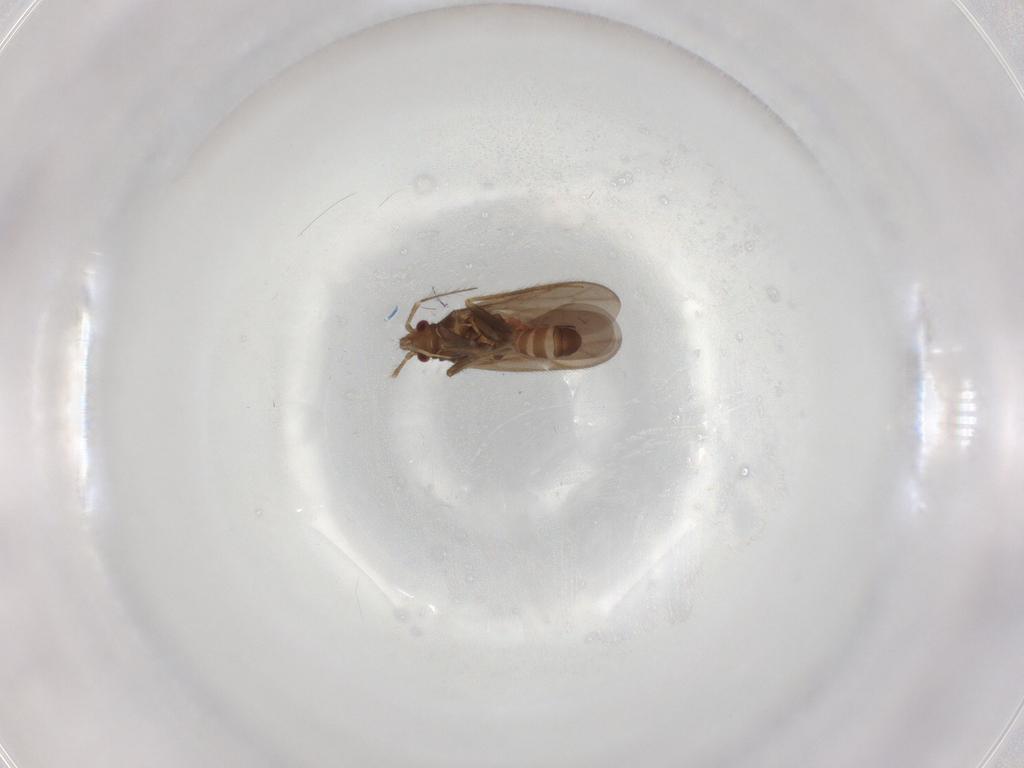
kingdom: Animalia
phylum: Arthropoda
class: Insecta
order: Hemiptera
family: Ceratocombidae
